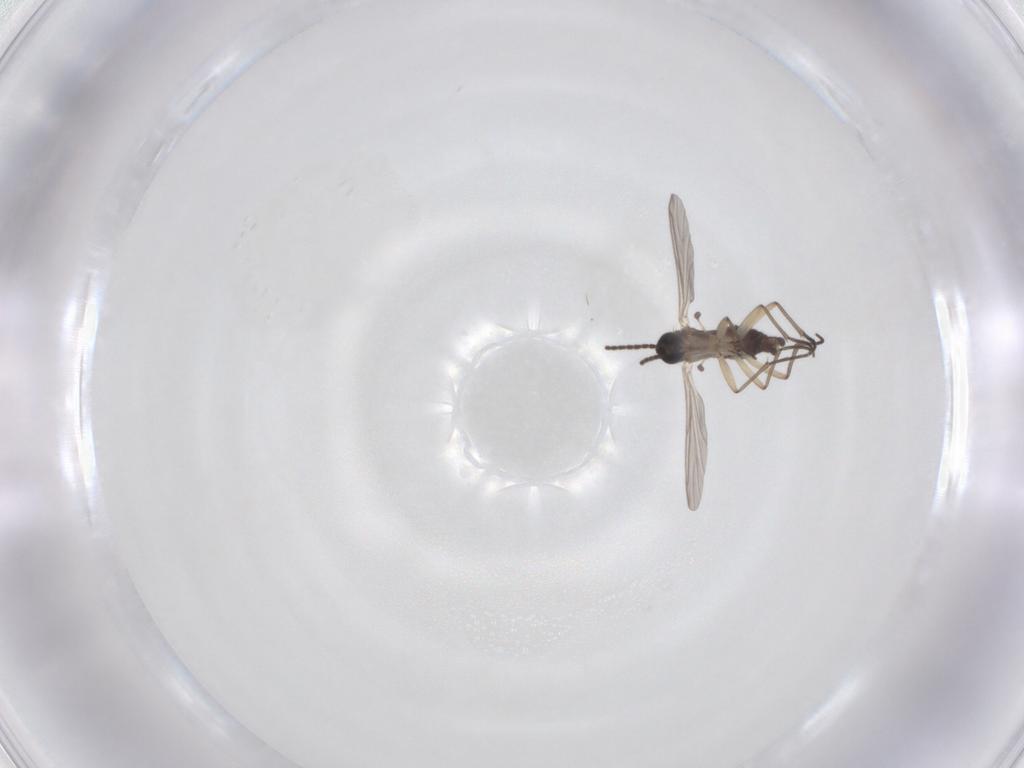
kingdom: Animalia
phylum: Arthropoda
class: Insecta
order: Diptera
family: Sciaridae
